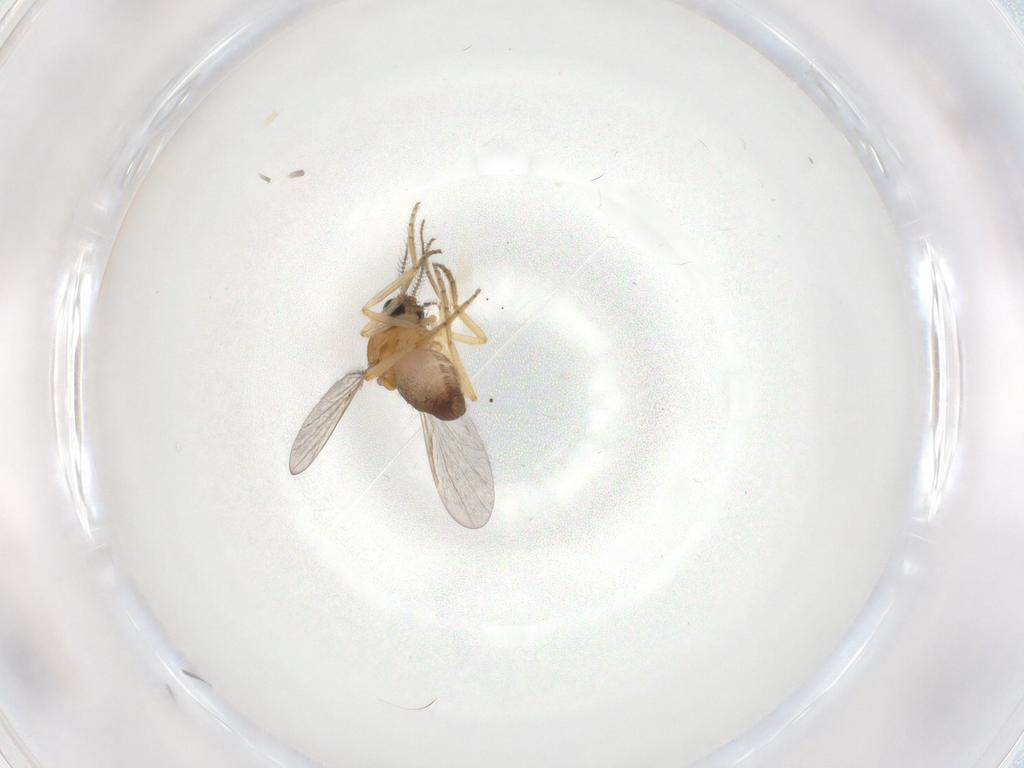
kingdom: Animalia
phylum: Arthropoda
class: Insecta
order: Diptera
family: Ceratopogonidae
